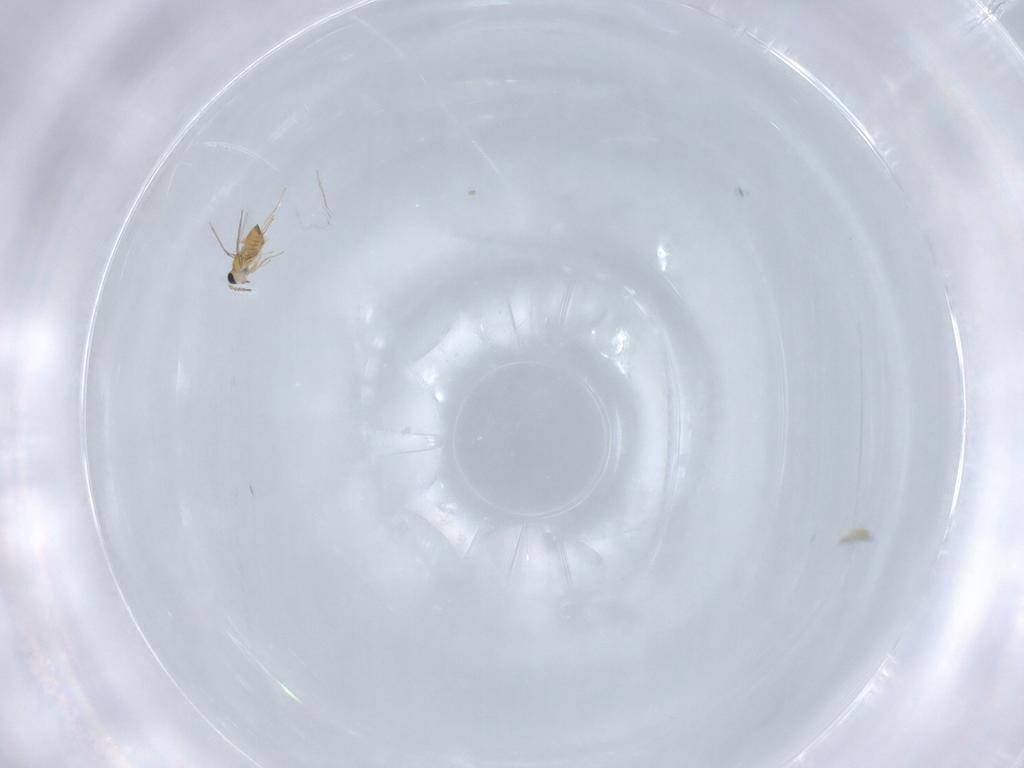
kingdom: Animalia
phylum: Arthropoda
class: Insecta
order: Hymenoptera
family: Trichogrammatidae
